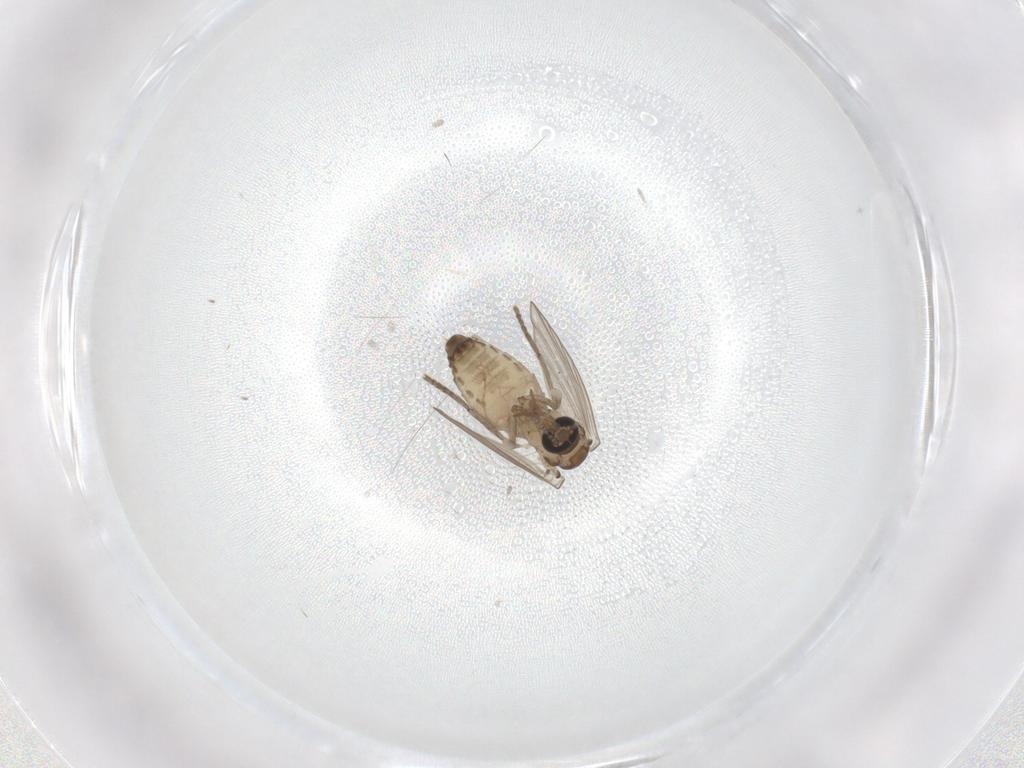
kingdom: Animalia
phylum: Arthropoda
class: Insecta
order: Diptera
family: Psychodidae
